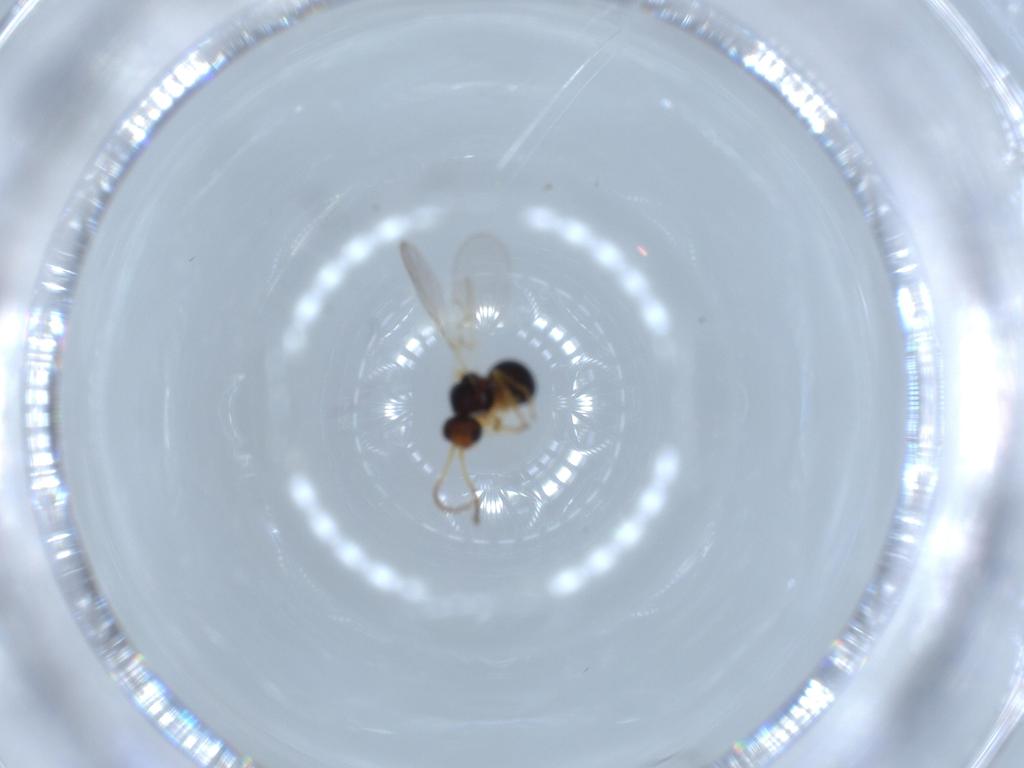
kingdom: Animalia
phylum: Arthropoda
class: Insecta
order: Hymenoptera
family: Figitidae
